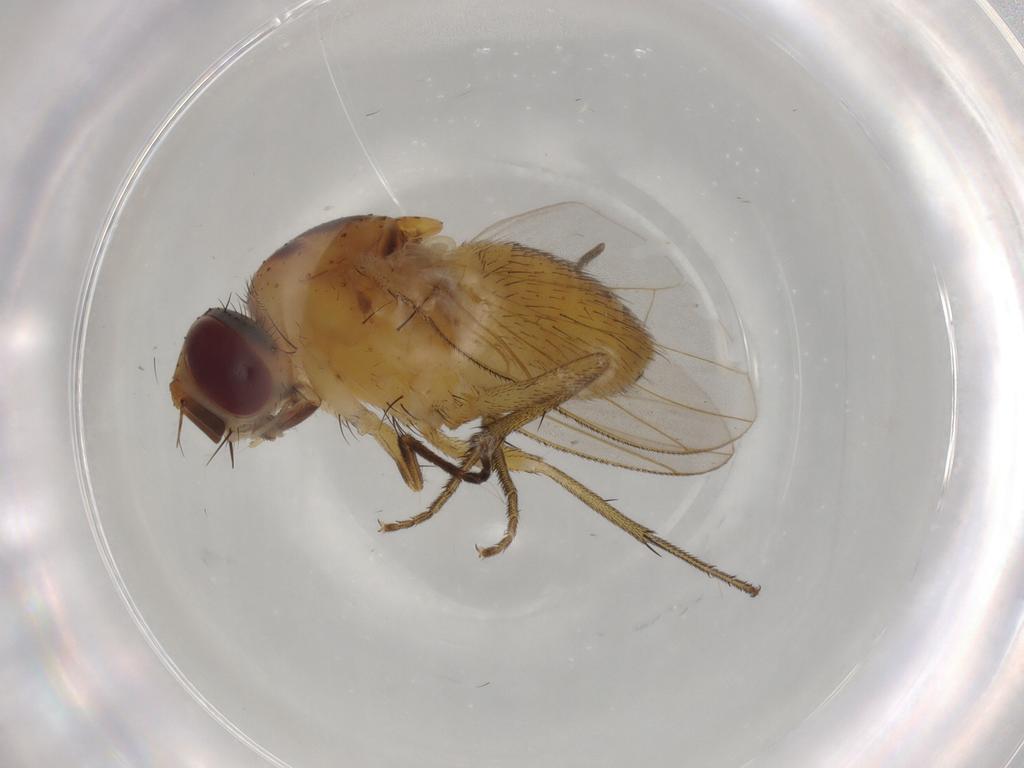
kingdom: Animalia
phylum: Arthropoda
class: Insecta
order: Diptera
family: Dolichopodidae
